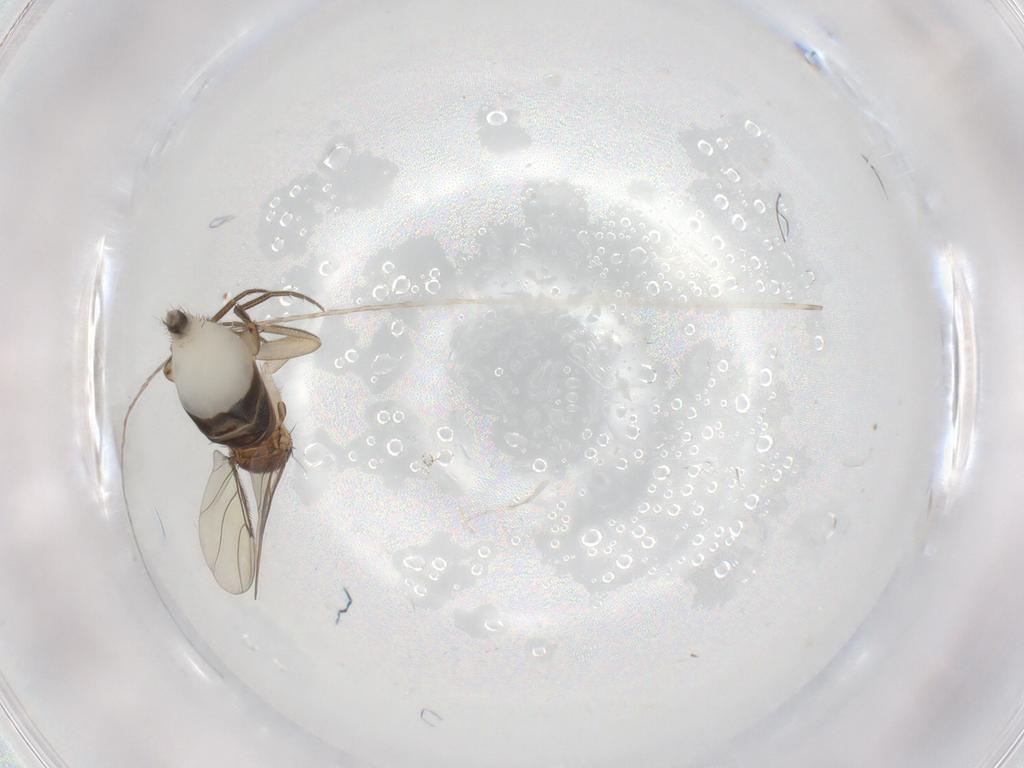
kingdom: Animalia
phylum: Arthropoda
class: Insecta
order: Diptera
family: Phoridae
